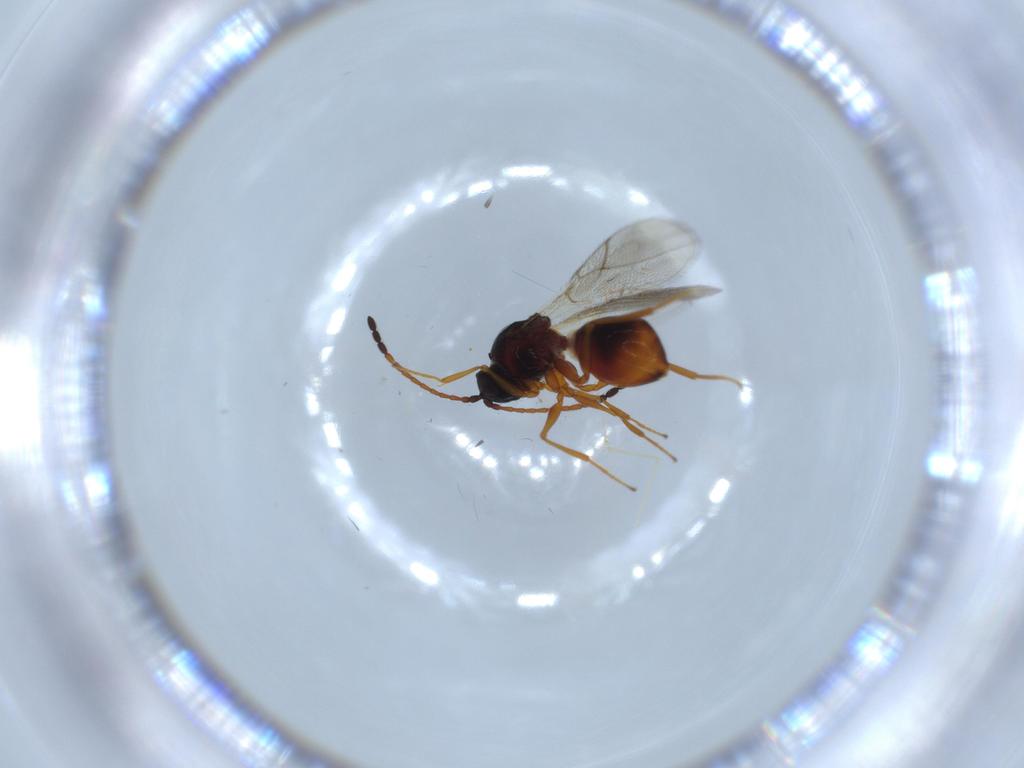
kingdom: Animalia
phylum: Arthropoda
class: Insecta
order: Hymenoptera
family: Figitidae
